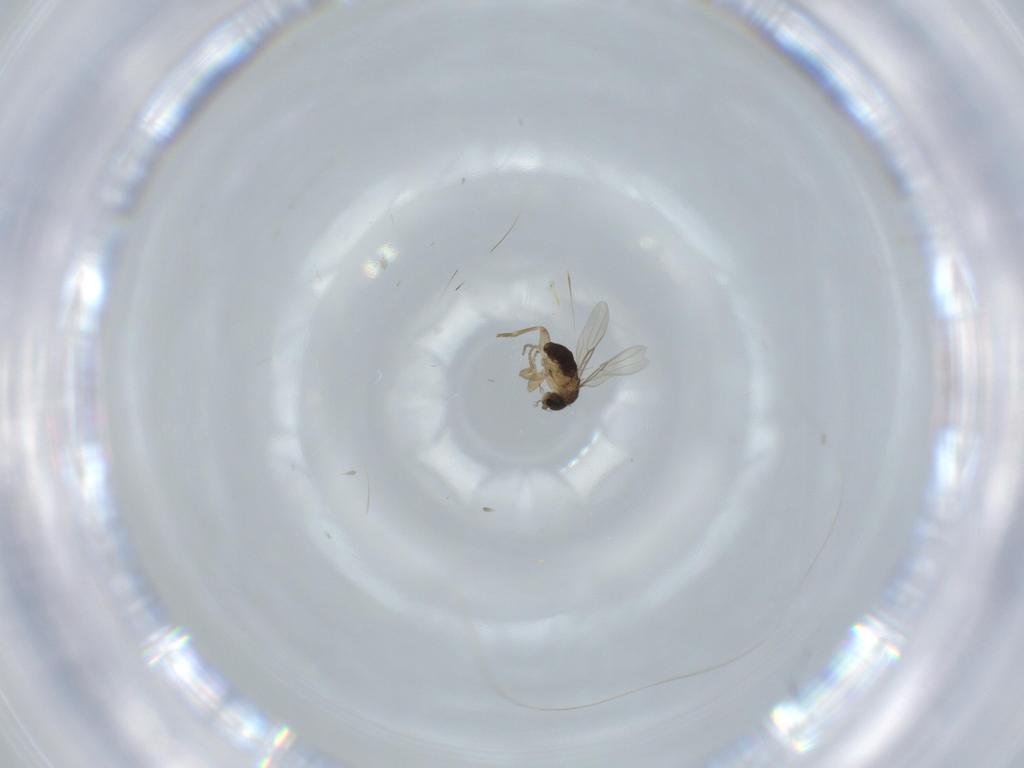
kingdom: Animalia
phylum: Arthropoda
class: Insecta
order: Diptera
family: Phoridae
